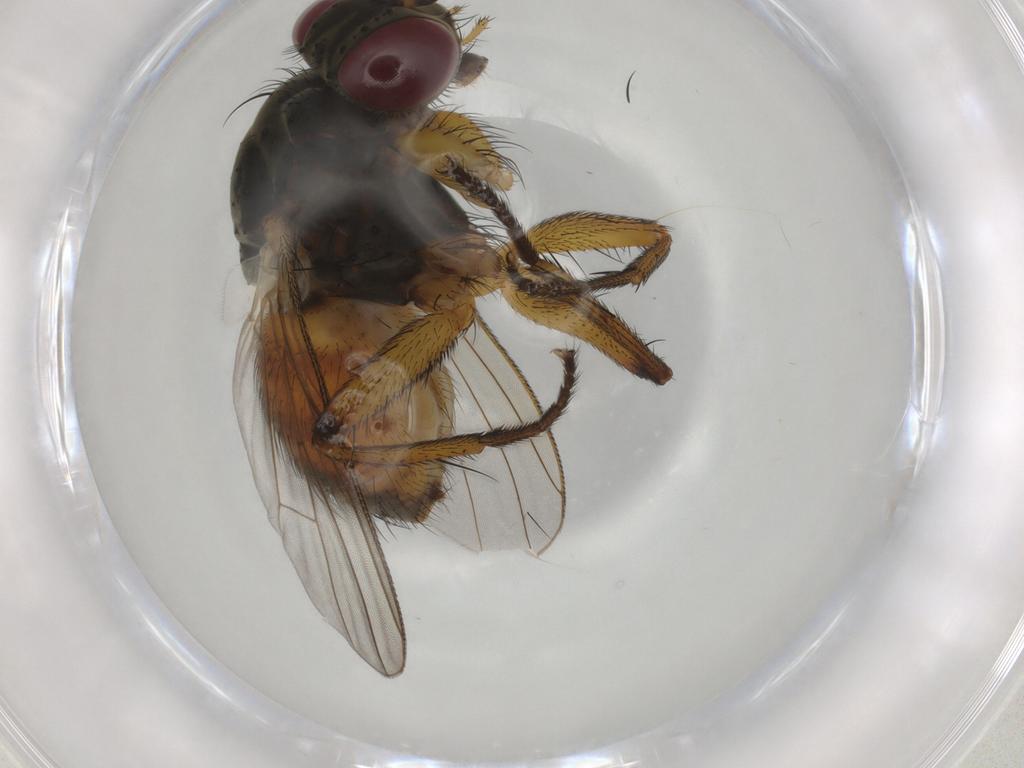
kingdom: Animalia
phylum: Arthropoda
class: Insecta
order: Diptera
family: Muscidae
